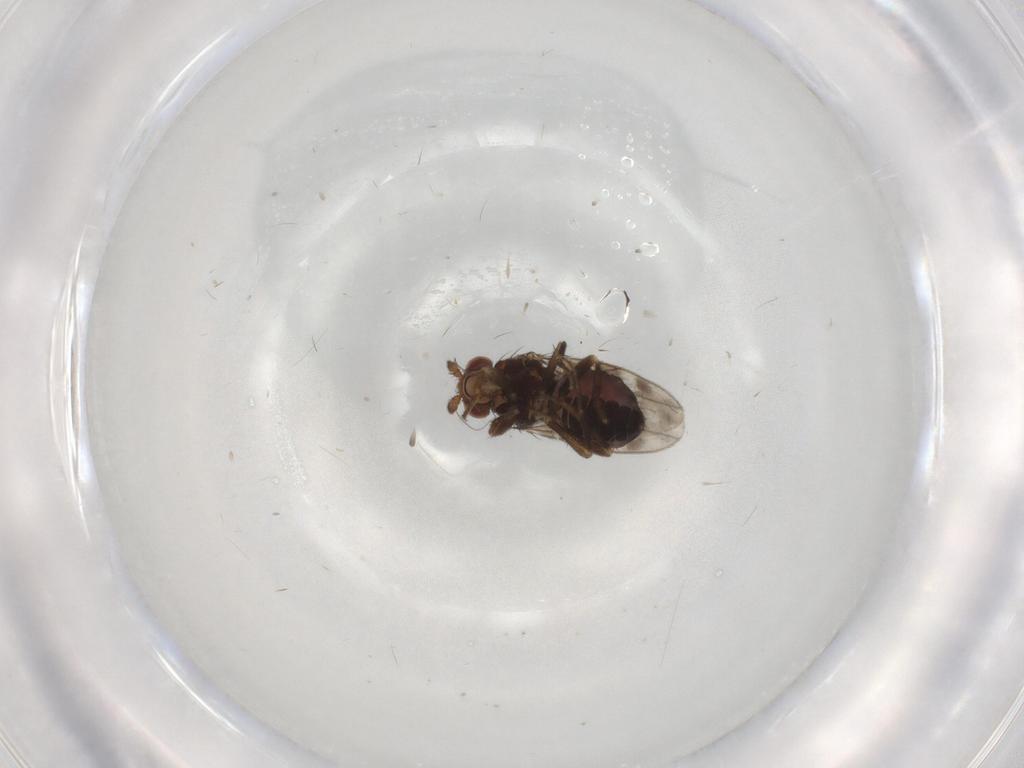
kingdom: Animalia
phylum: Arthropoda
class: Insecta
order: Diptera
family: Sphaeroceridae
